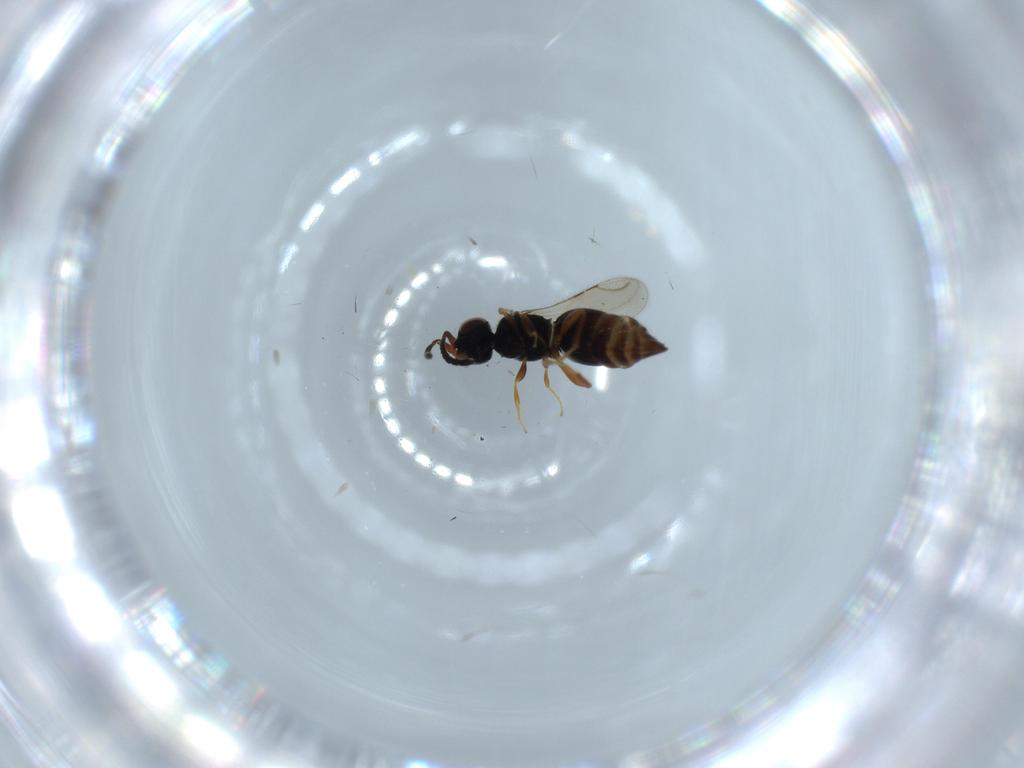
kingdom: Animalia
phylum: Arthropoda
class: Insecta
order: Hymenoptera
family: Ceraphronidae
